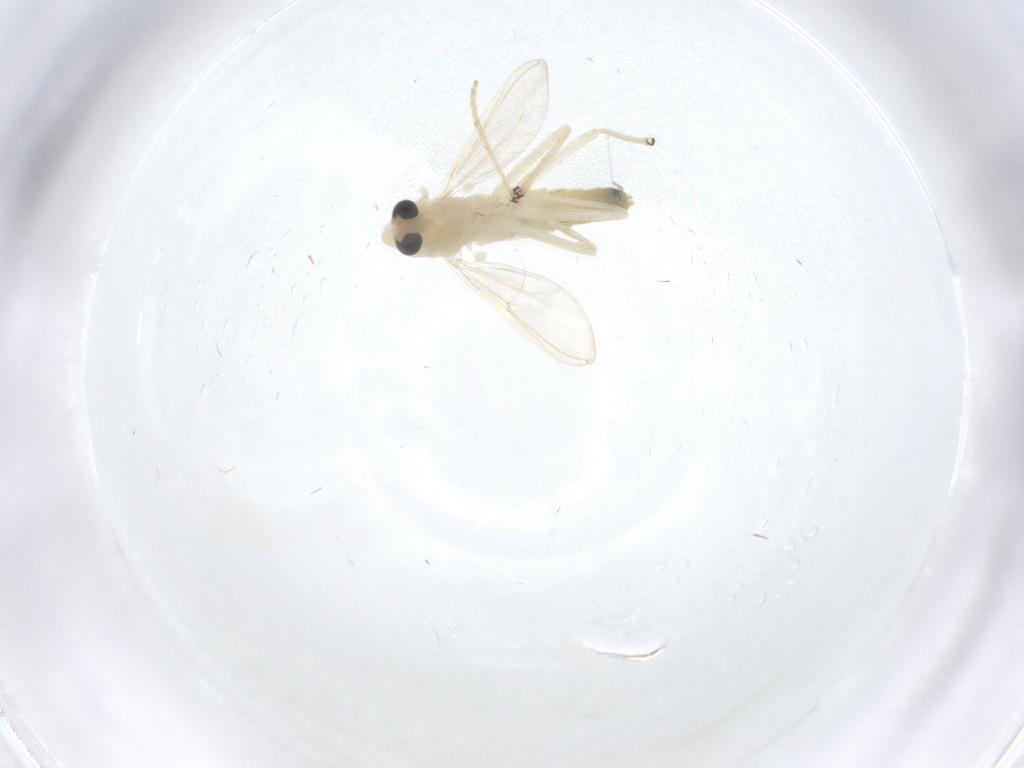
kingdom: Animalia
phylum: Arthropoda
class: Insecta
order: Diptera
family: Chironomidae
